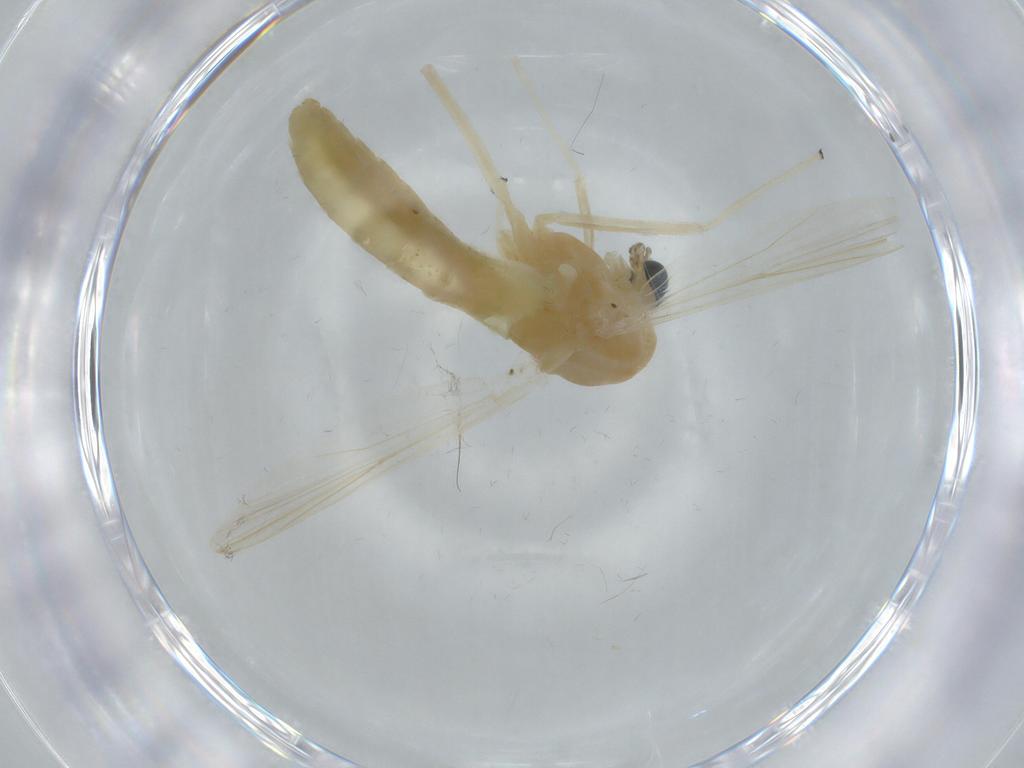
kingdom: Animalia
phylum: Arthropoda
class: Insecta
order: Diptera
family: Chironomidae
